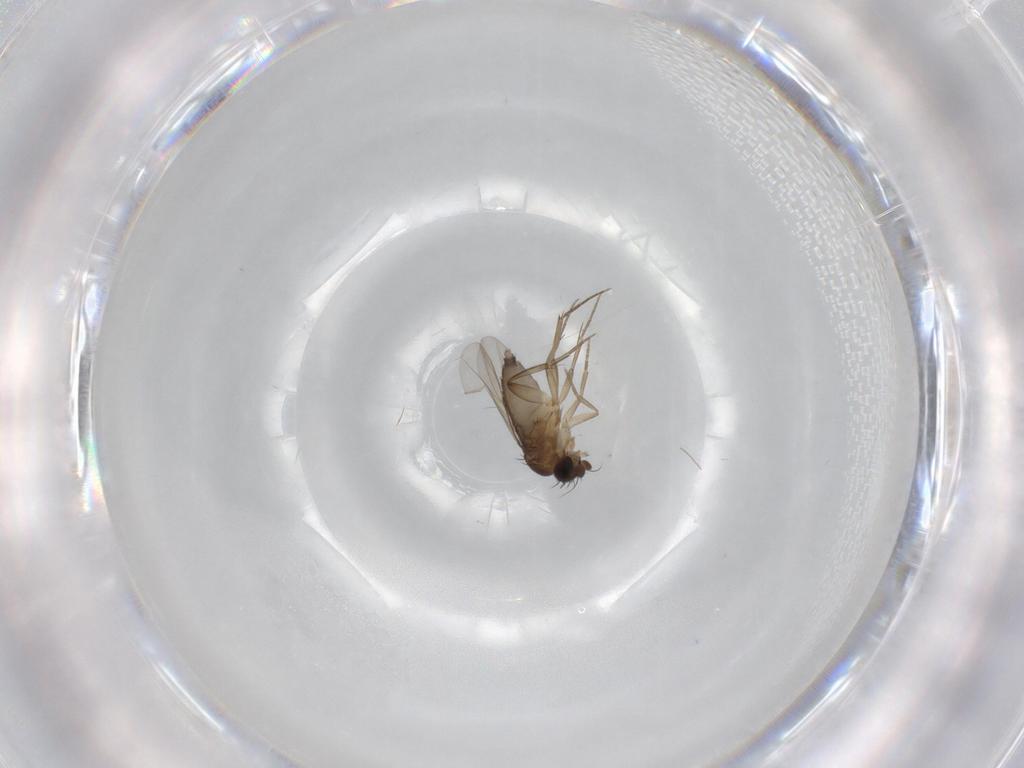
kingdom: Animalia
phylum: Arthropoda
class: Insecta
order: Diptera
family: Phoridae
